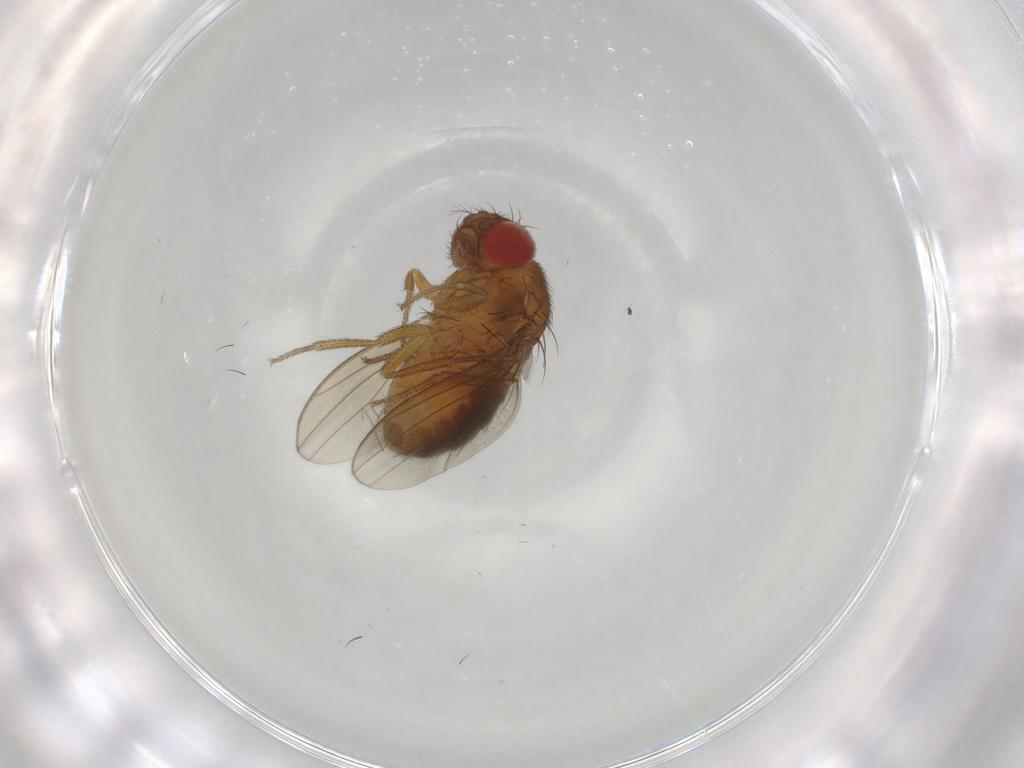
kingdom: Animalia
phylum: Arthropoda
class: Insecta
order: Diptera
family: Drosophilidae
